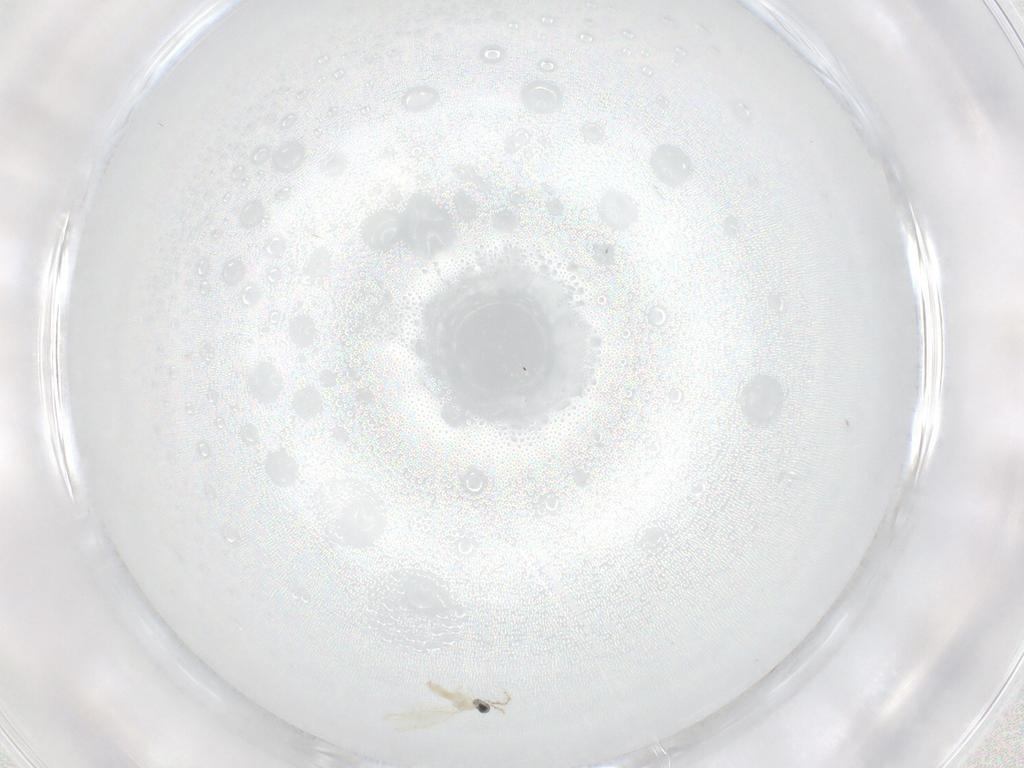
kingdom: Animalia
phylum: Arthropoda
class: Insecta
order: Diptera
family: Cecidomyiidae
